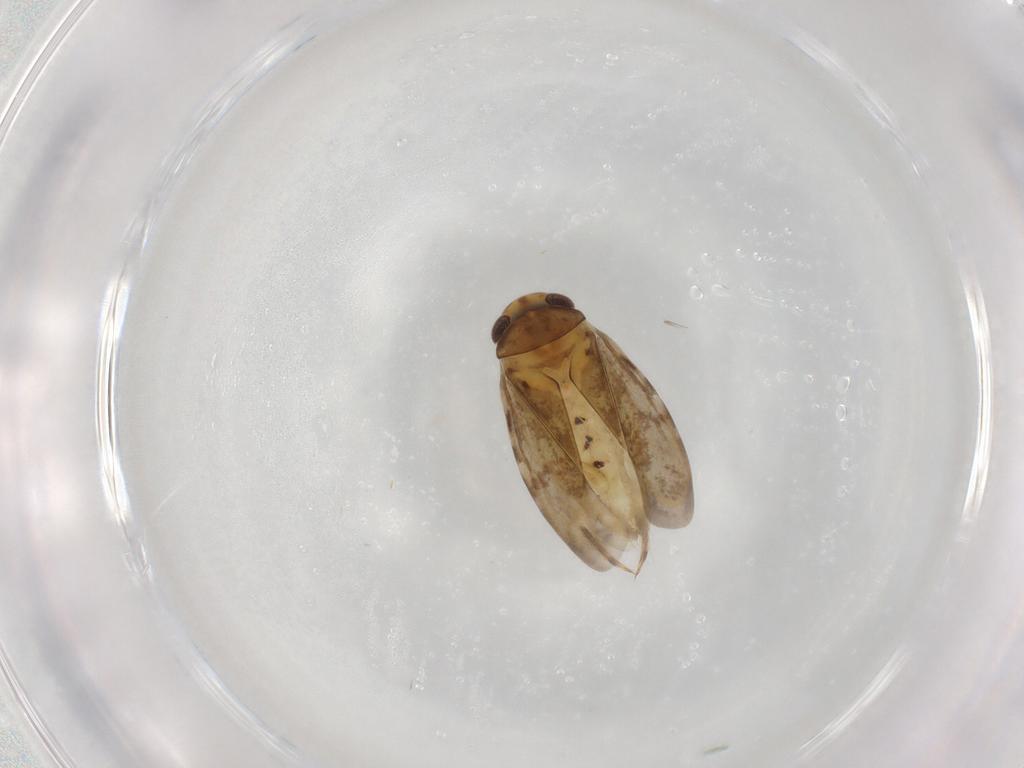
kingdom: Animalia
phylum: Arthropoda
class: Insecta
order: Hemiptera
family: Corixidae
